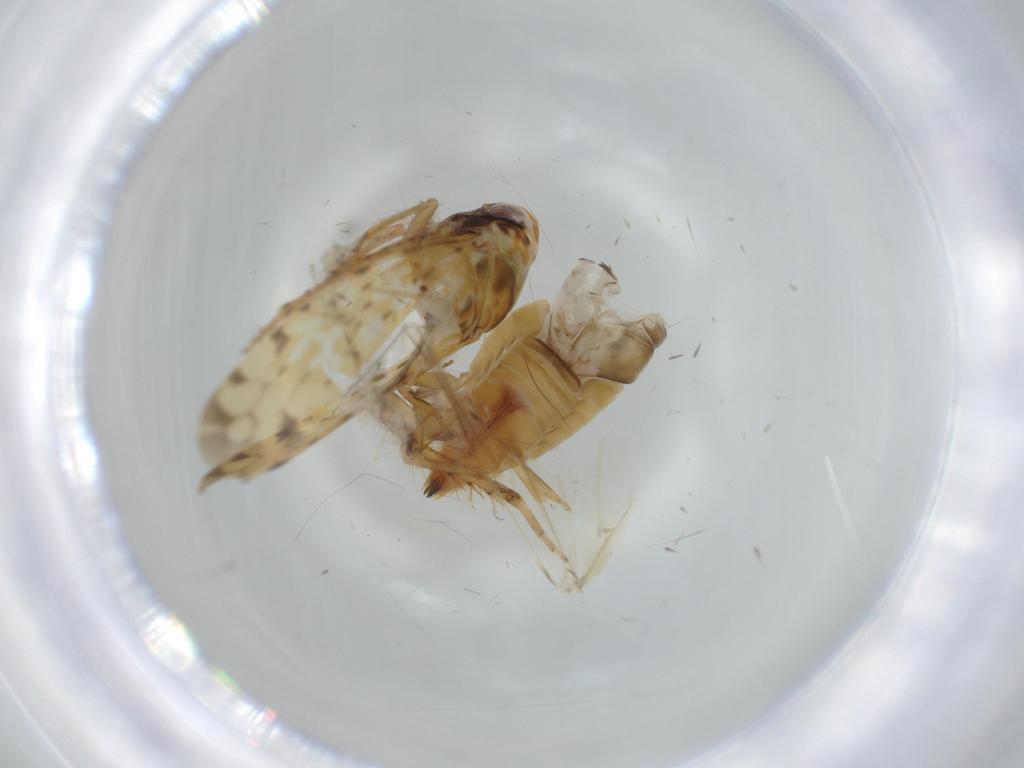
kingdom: Animalia
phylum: Arthropoda
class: Insecta
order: Hemiptera
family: Cicadellidae
